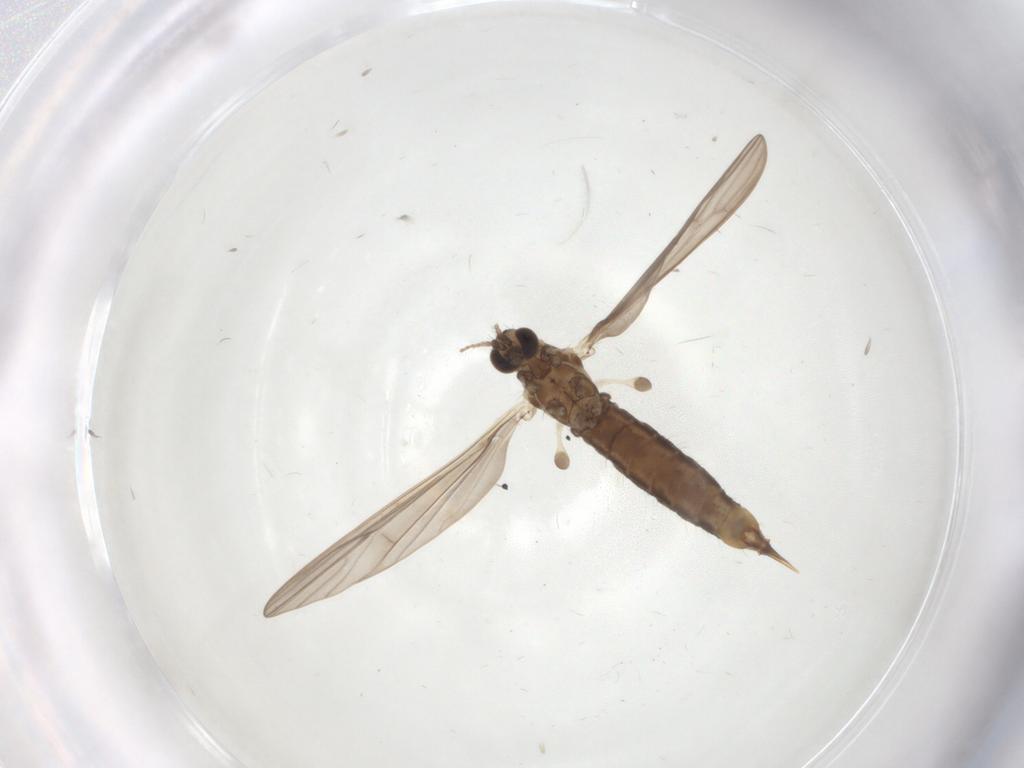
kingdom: Animalia
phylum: Arthropoda
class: Insecta
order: Diptera
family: Limoniidae
